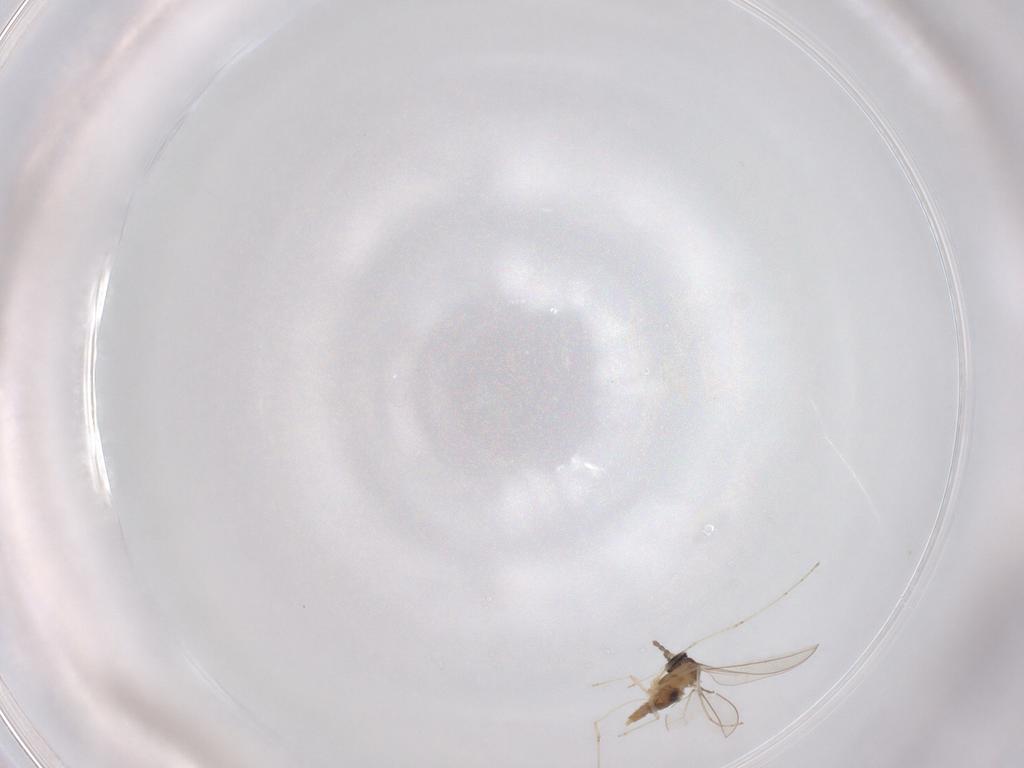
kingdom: Animalia
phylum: Arthropoda
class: Insecta
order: Diptera
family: Cecidomyiidae
